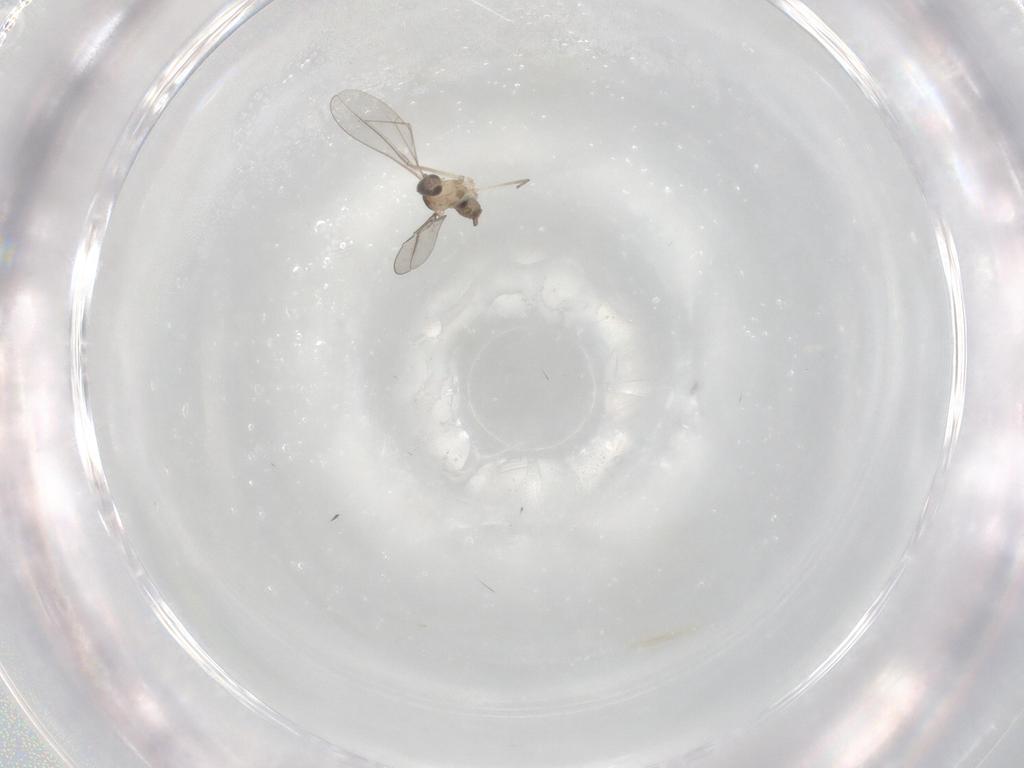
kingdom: Animalia
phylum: Arthropoda
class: Insecta
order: Diptera
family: Cecidomyiidae
